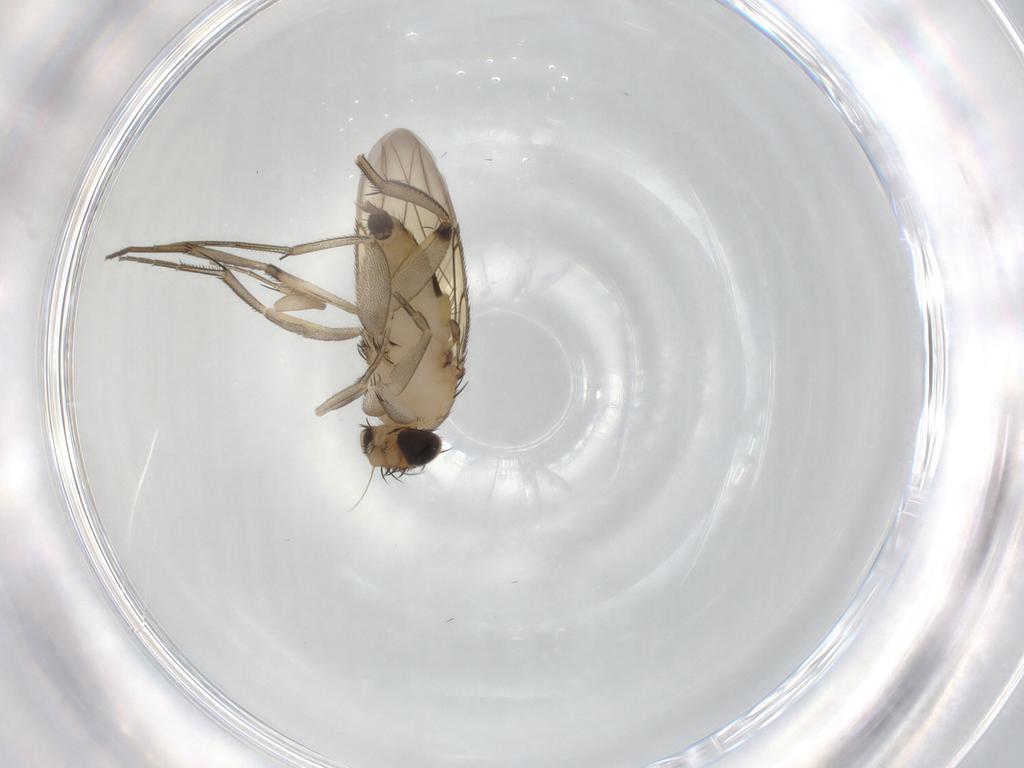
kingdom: Animalia
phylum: Arthropoda
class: Insecta
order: Diptera
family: Phoridae
